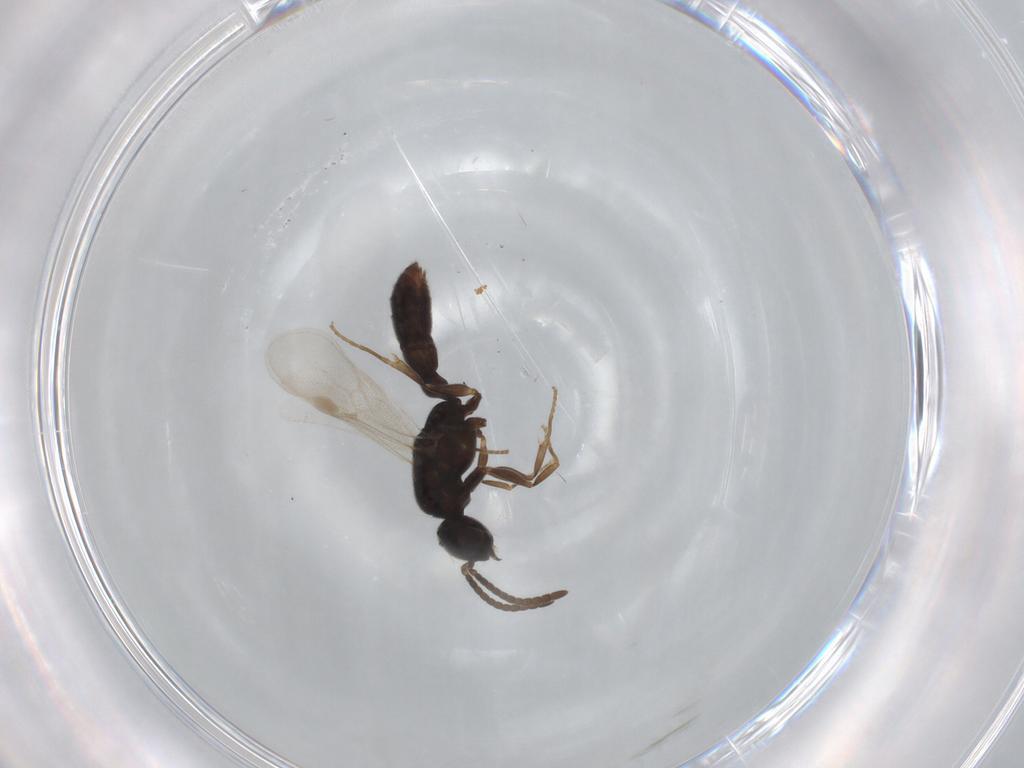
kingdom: Animalia
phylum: Arthropoda
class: Insecta
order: Hymenoptera
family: Formicidae
